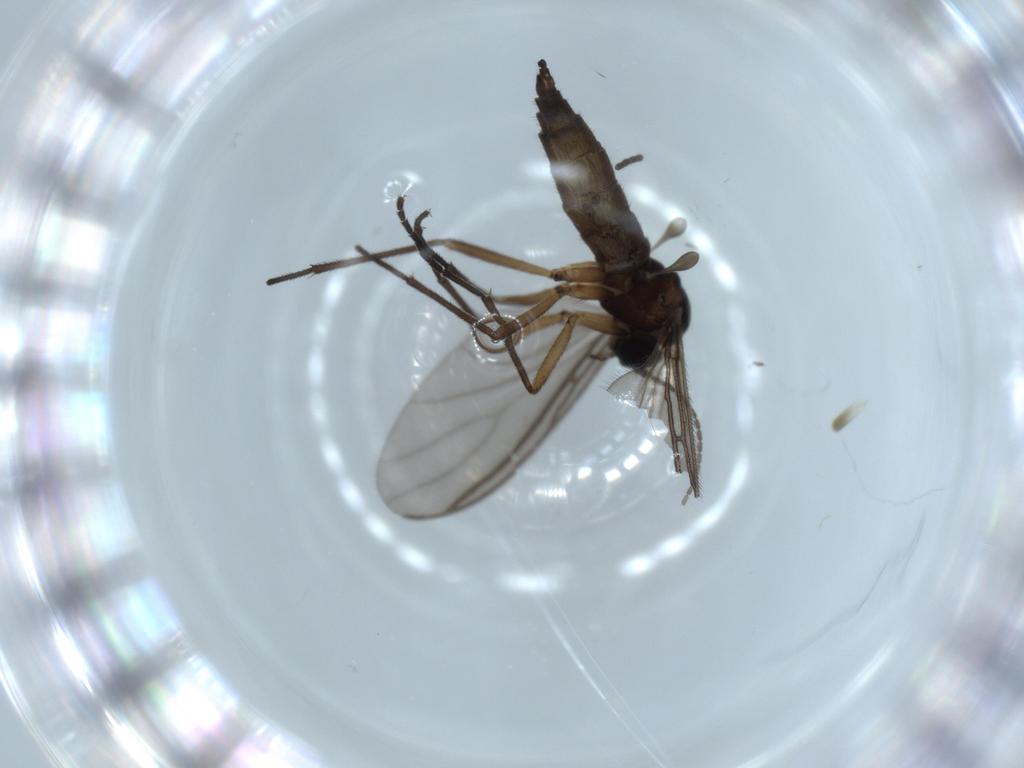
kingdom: Animalia
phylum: Arthropoda
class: Insecta
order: Diptera
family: Sciaridae
